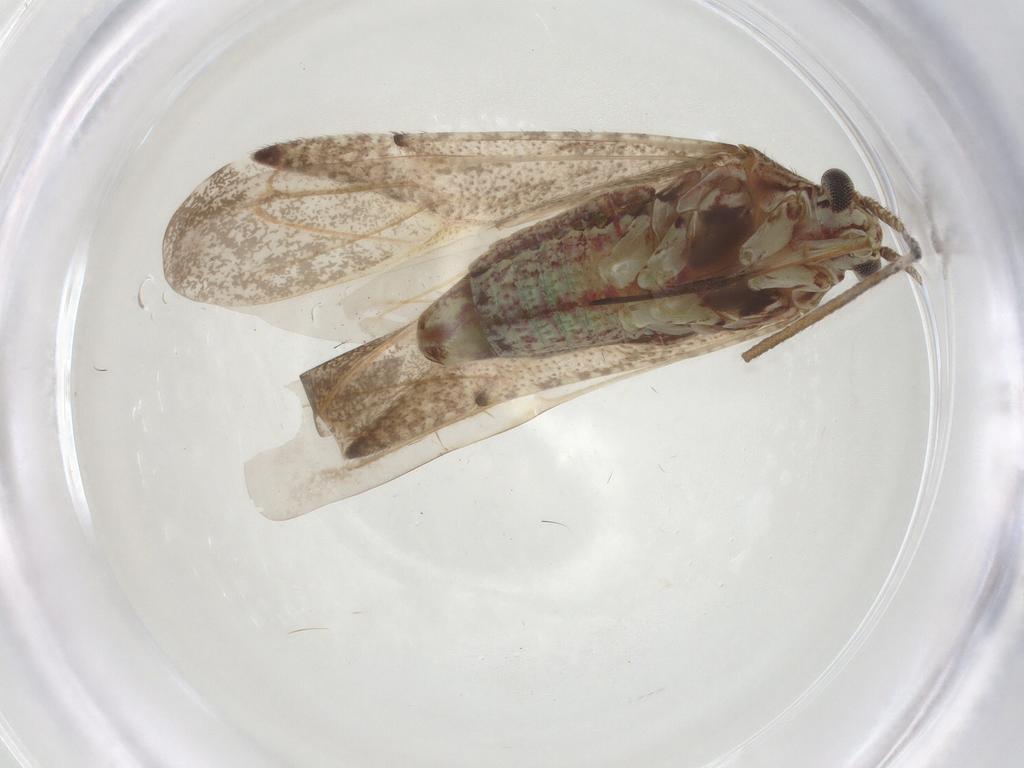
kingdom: Animalia
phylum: Arthropoda
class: Insecta
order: Hemiptera
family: Miridae
